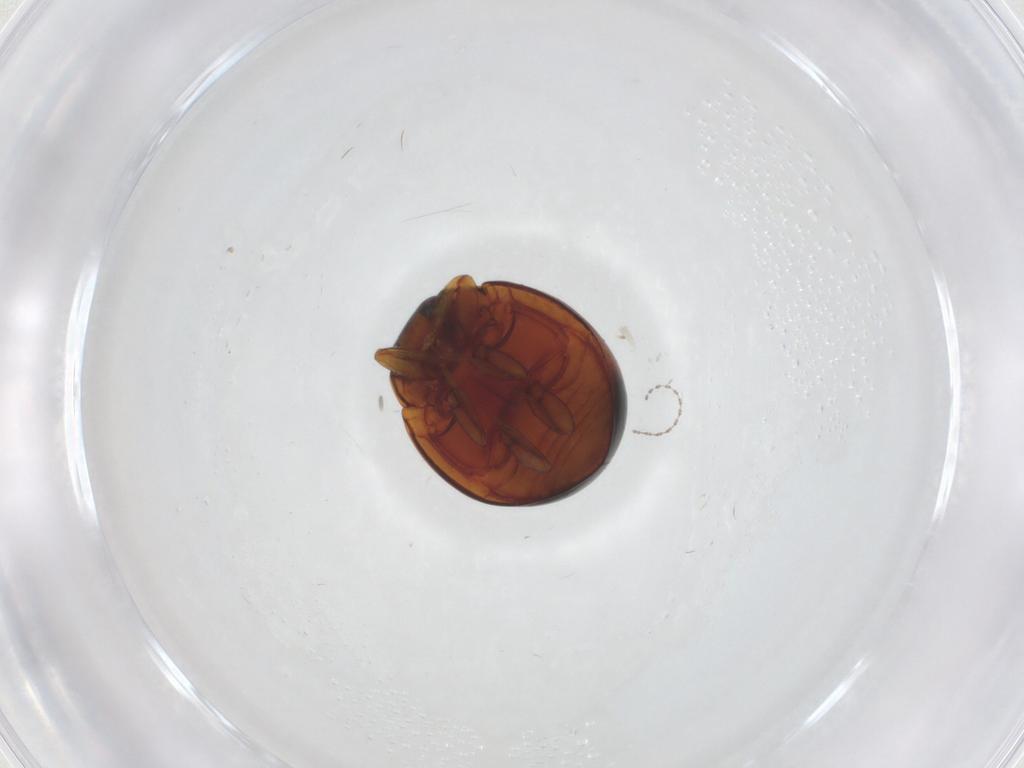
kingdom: Animalia
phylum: Arthropoda
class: Insecta
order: Coleoptera
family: Coccinellidae
